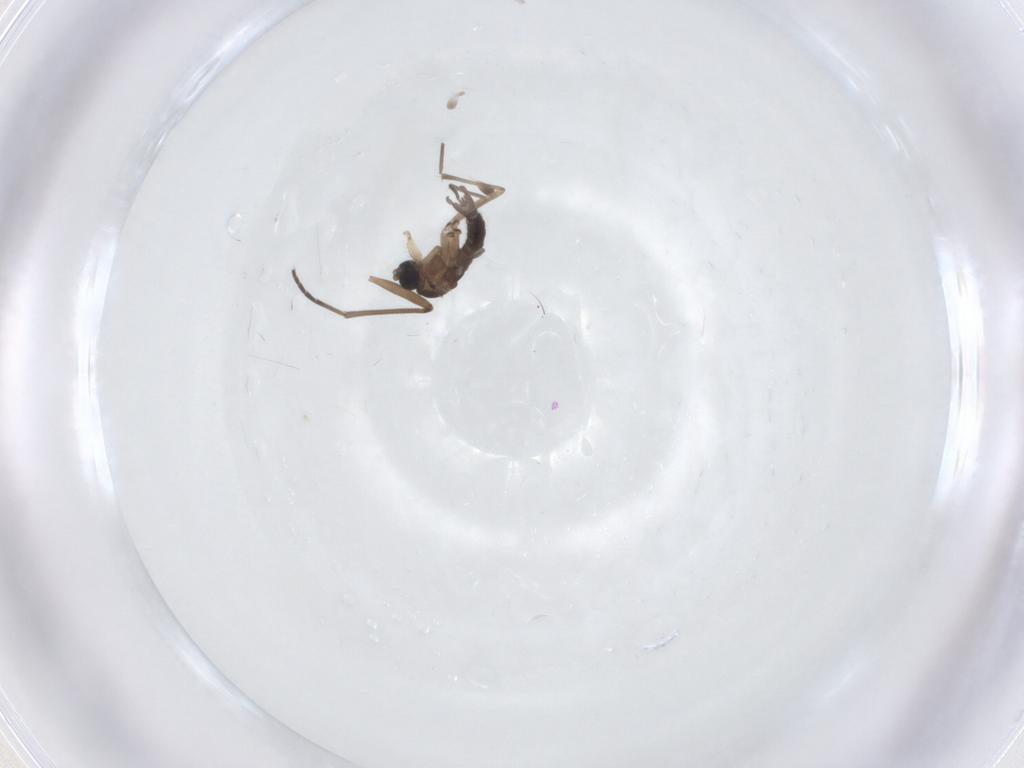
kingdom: Animalia
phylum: Arthropoda
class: Insecta
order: Diptera
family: Sciaridae
